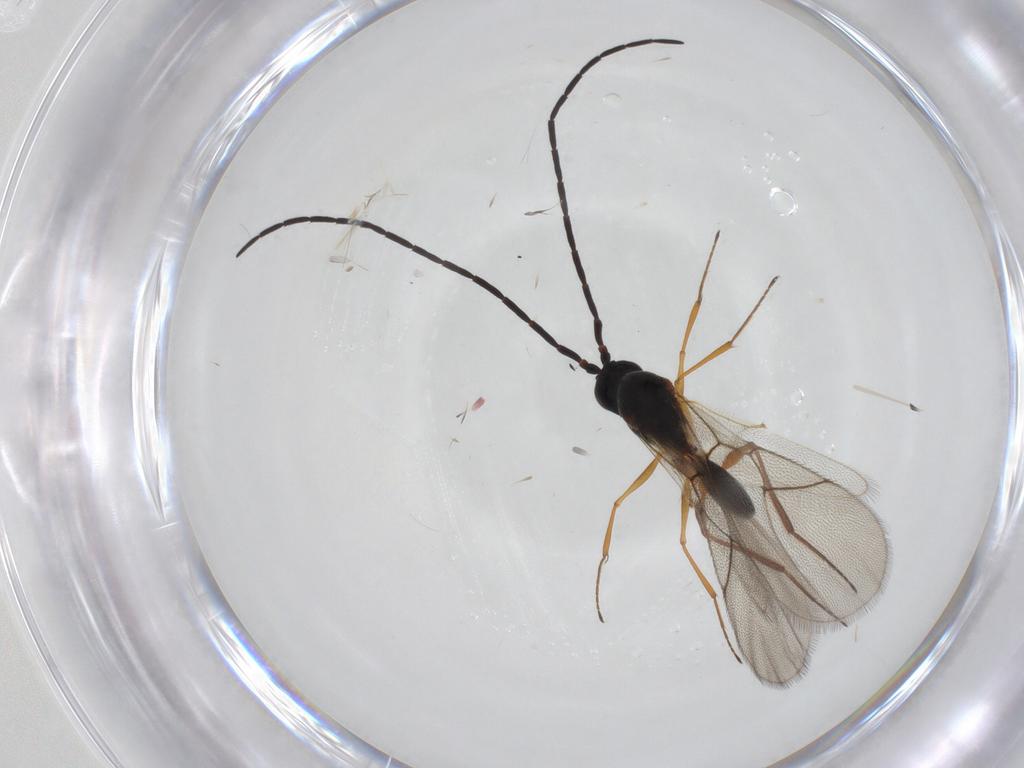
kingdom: Animalia
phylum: Arthropoda
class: Insecta
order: Hymenoptera
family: Figitidae
